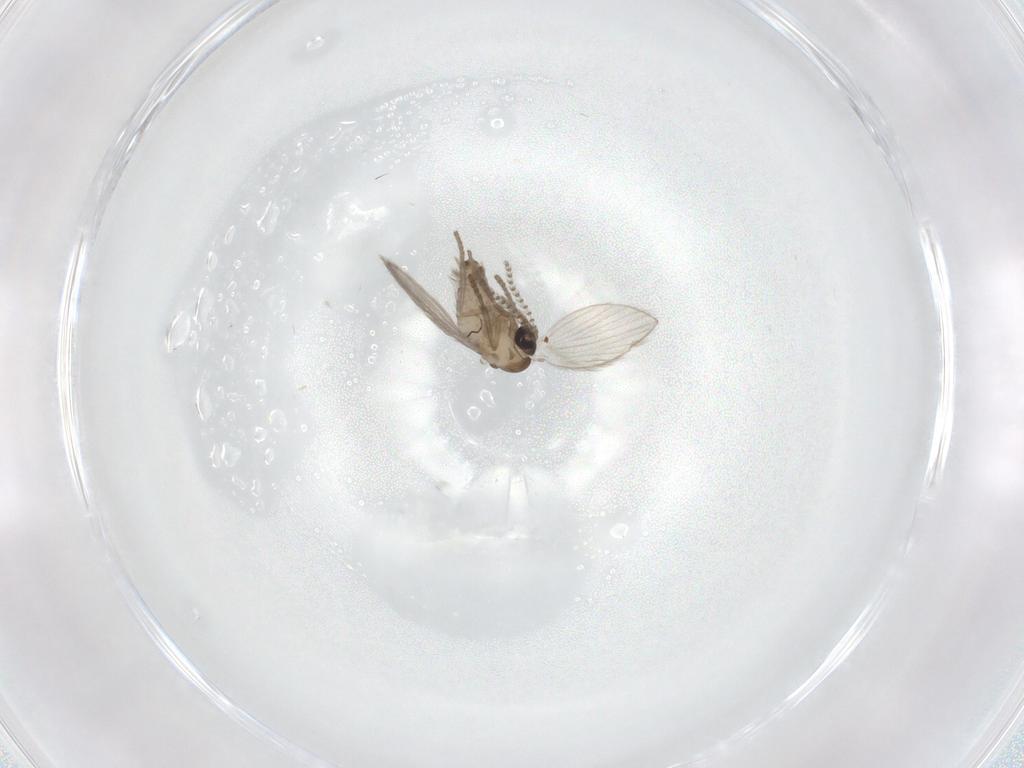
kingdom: Animalia
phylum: Arthropoda
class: Insecta
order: Diptera
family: Psychodidae
